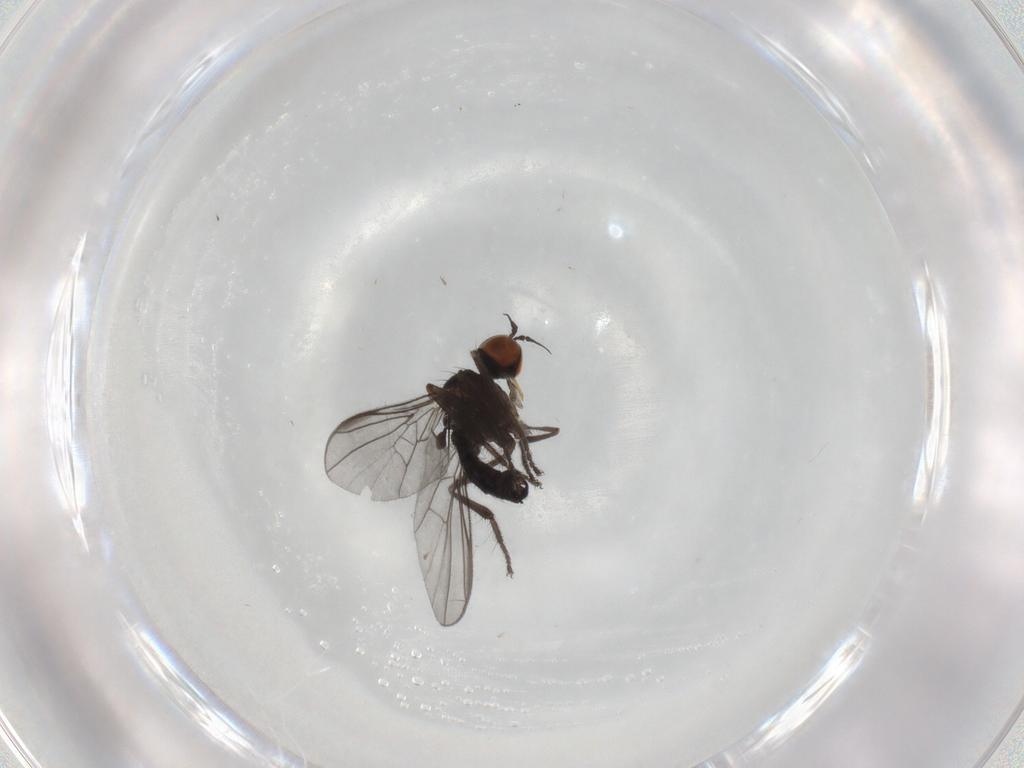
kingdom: Animalia
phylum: Arthropoda
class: Insecta
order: Diptera
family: Empididae
